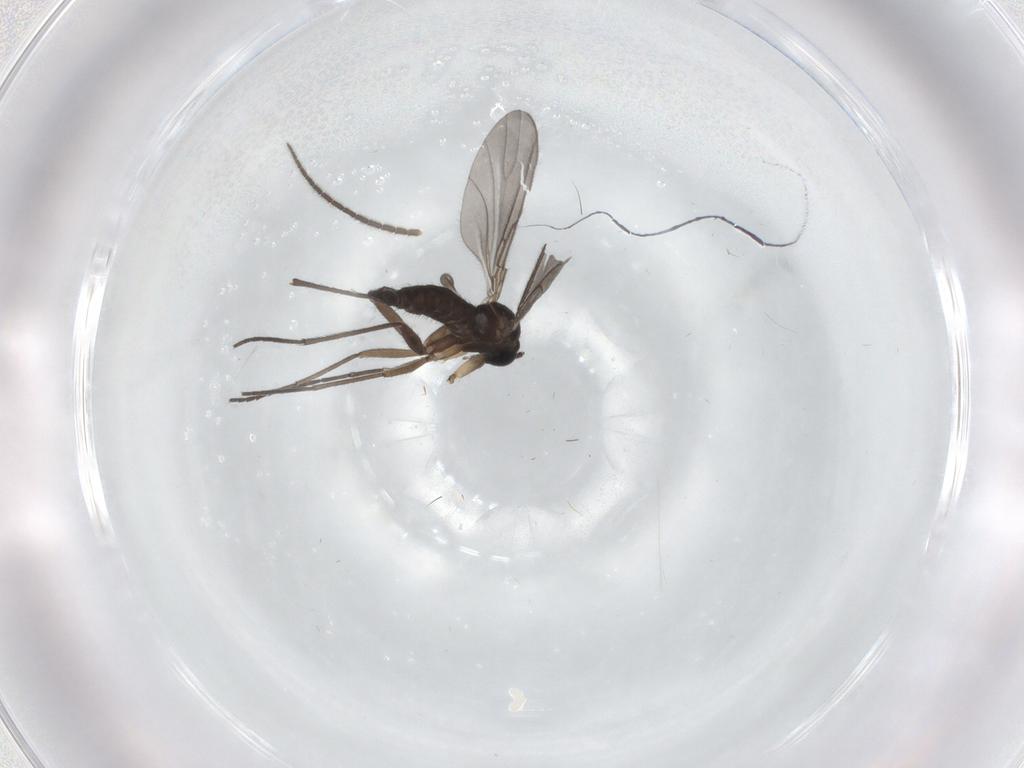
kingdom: Animalia
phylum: Arthropoda
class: Insecta
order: Diptera
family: Sciaridae
